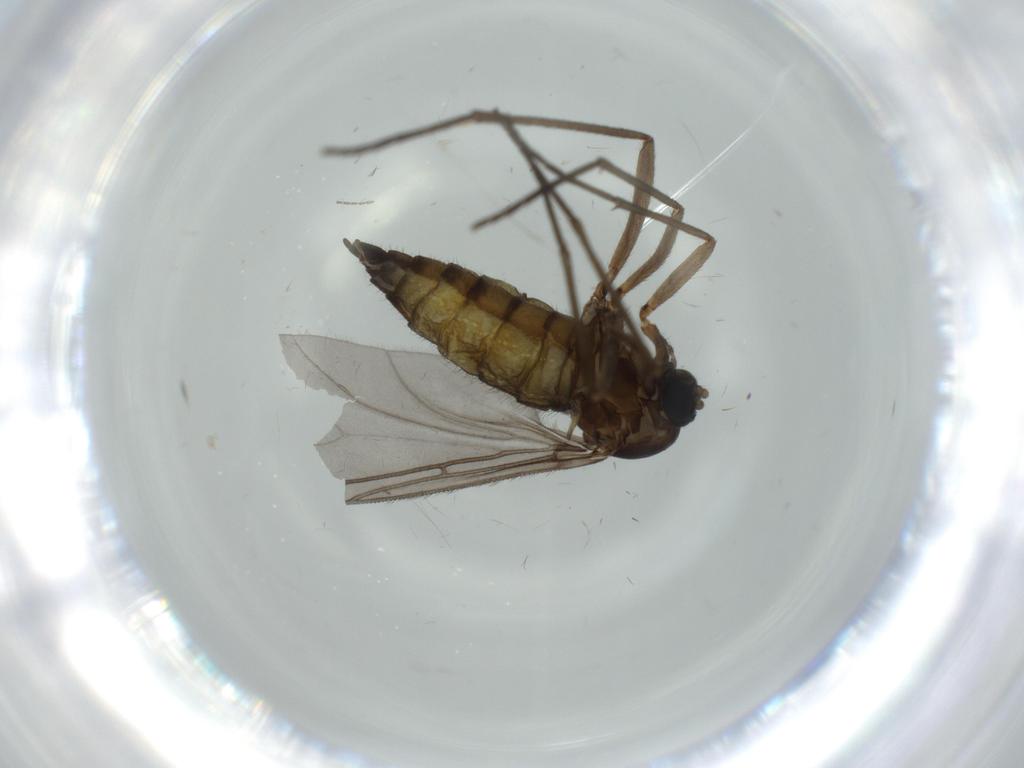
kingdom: Animalia
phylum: Arthropoda
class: Insecta
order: Diptera
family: Sciaridae
